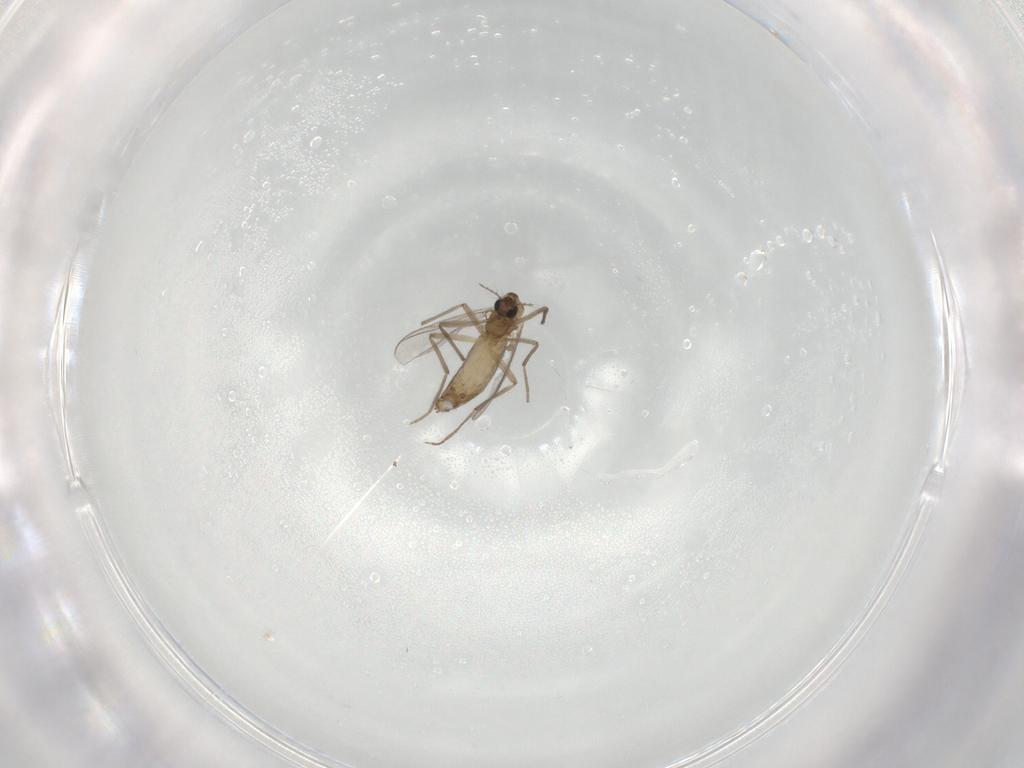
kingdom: Animalia
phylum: Arthropoda
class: Insecta
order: Diptera
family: Chironomidae
